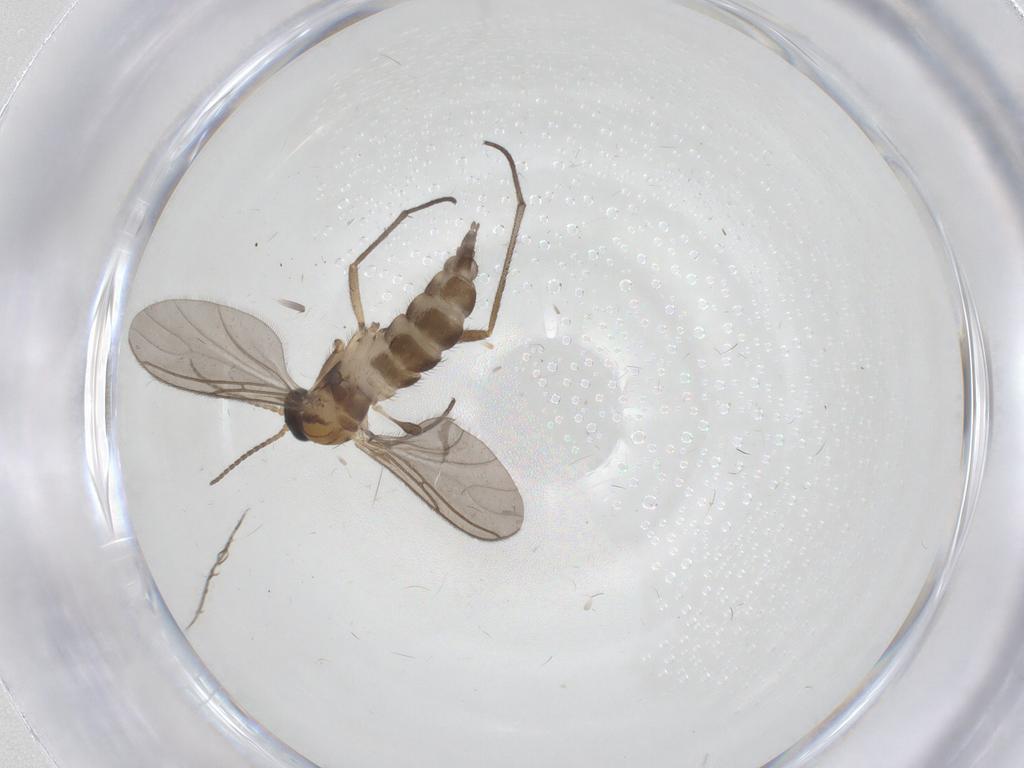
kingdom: Animalia
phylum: Arthropoda
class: Insecta
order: Diptera
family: Sciaridae
